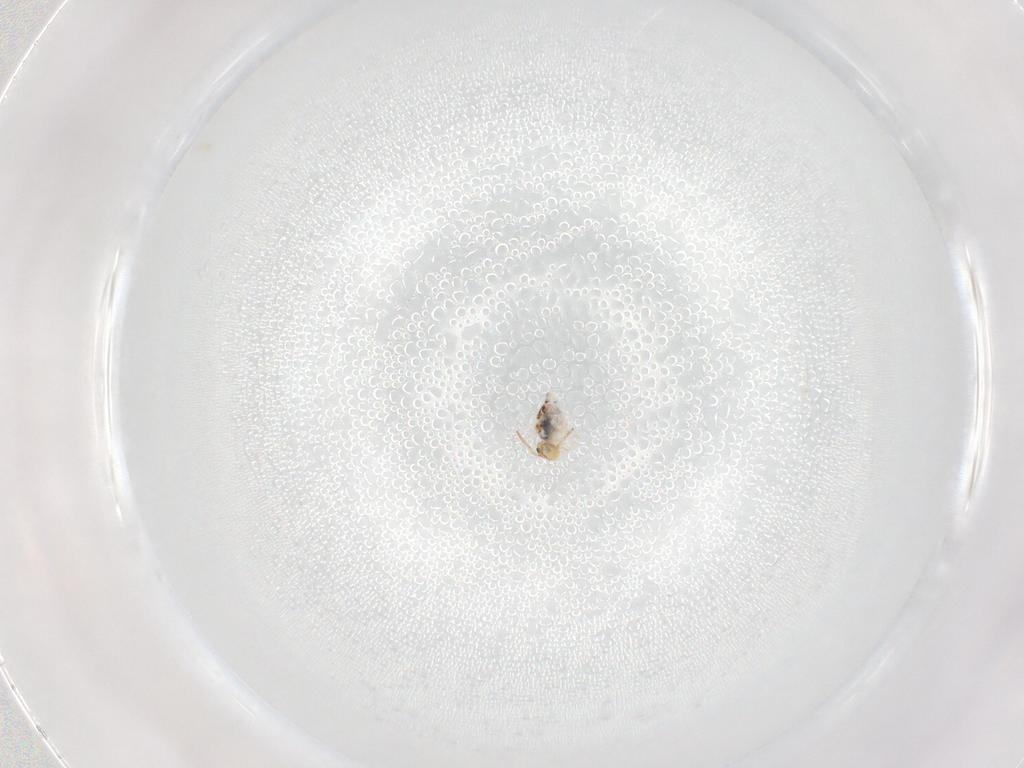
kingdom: Animalia
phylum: Arthropoda
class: Collembola
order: Symphypleona
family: Bourletiellidae
